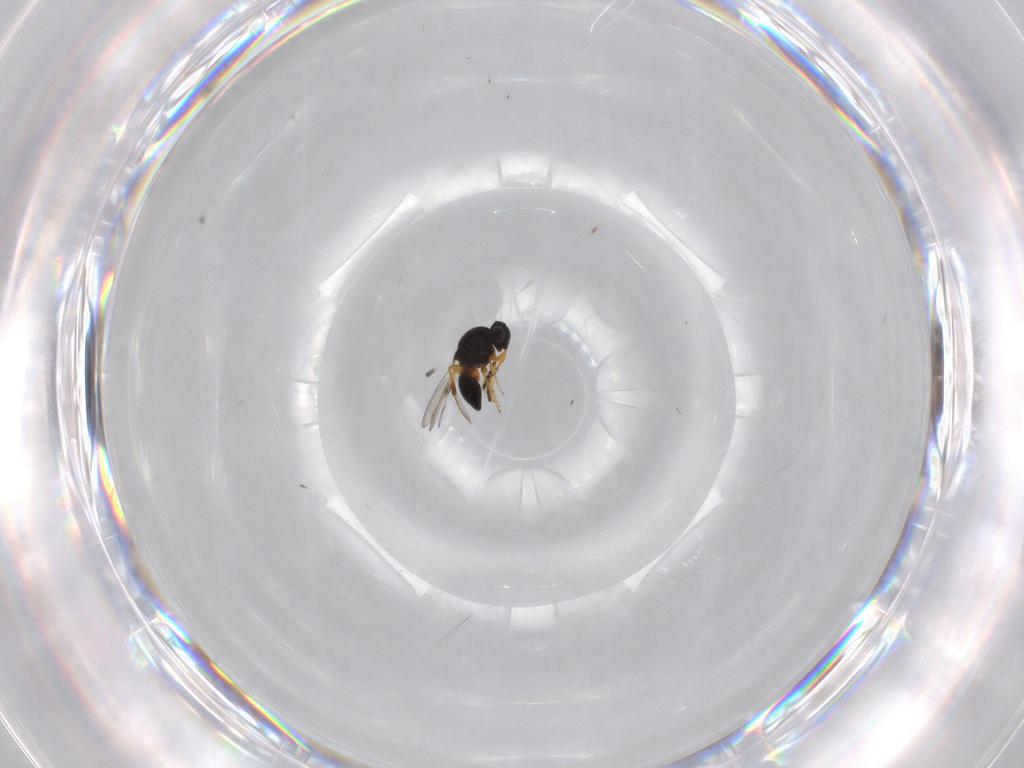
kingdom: Animalia
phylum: Arthropoda
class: Insecta
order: Hymenoptera
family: Platygastridae
